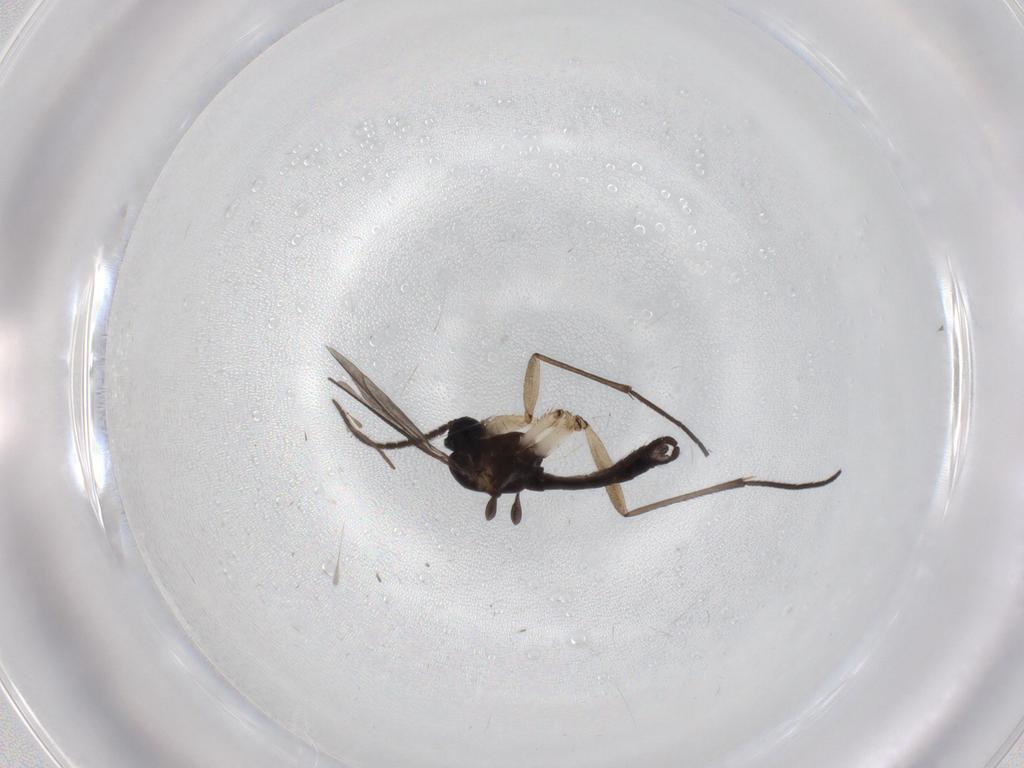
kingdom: Animalia
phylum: Arthropoda
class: Insecta
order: Diptera
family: Sciaridae
